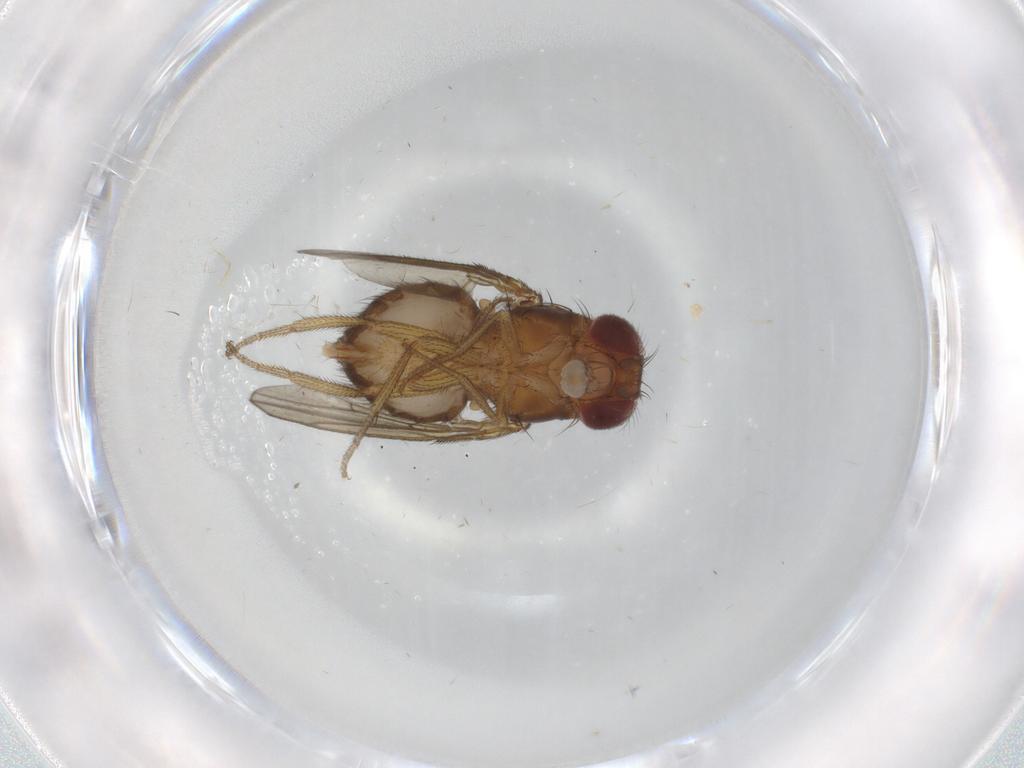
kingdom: Animalia
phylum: Arthropoda
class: Insecta
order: Diptera
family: Drosophilidae
